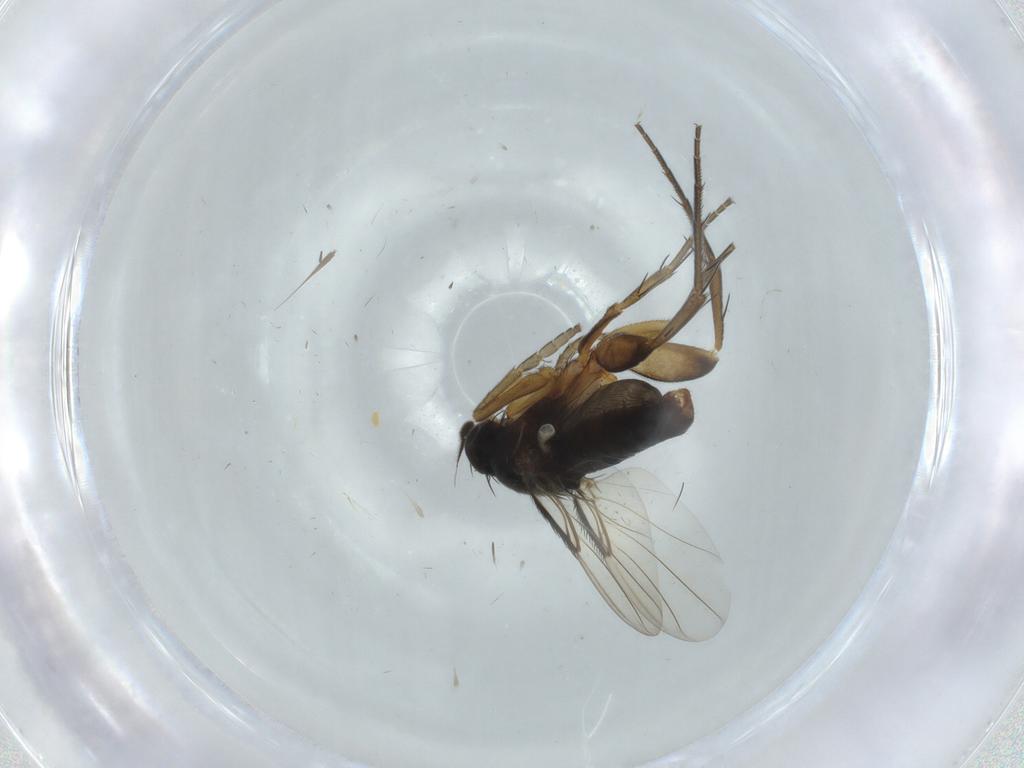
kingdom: Animalia
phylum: Arthropoda
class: Insecta
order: Diptera
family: Phoridae
